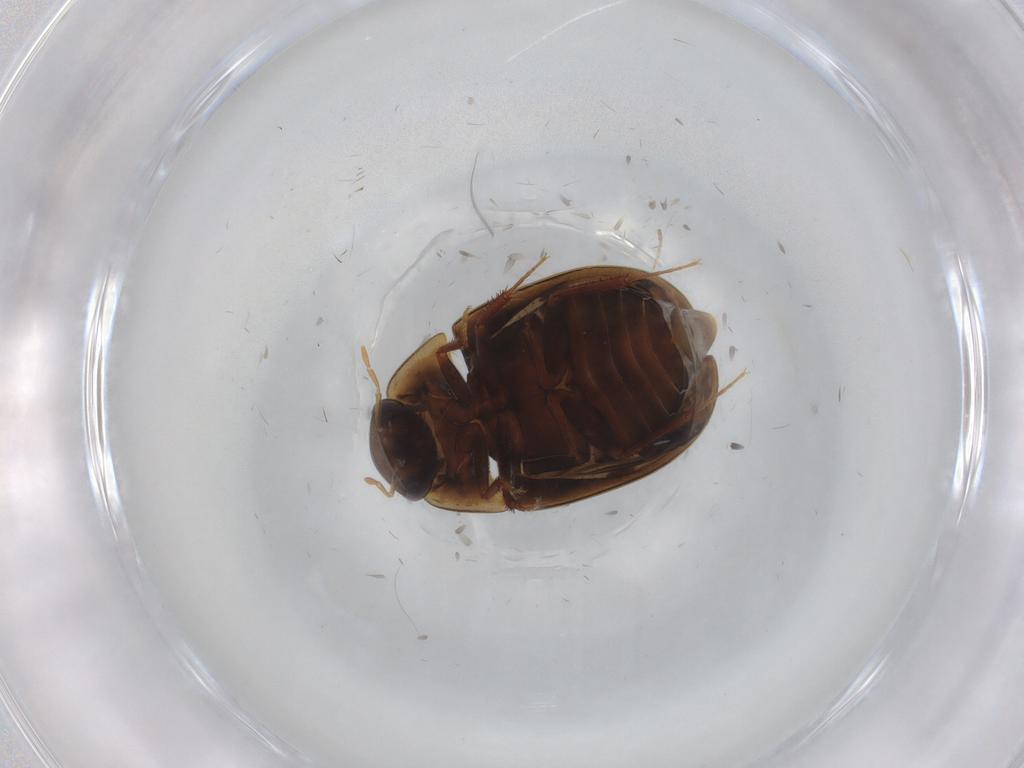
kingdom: Animalia
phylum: Arthropoda
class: Insecta
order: Coleoptera
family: Hydrophilidae
